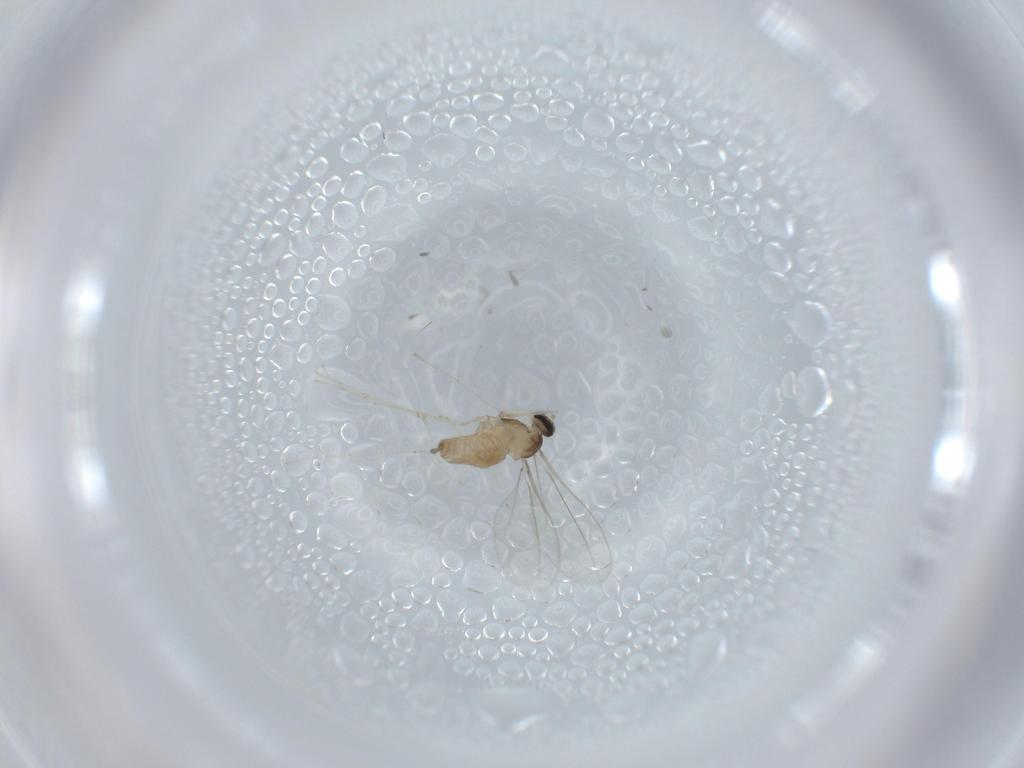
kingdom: Animalia
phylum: Arthropoda
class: Insecta
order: Diptera
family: Cecidomyiidae
